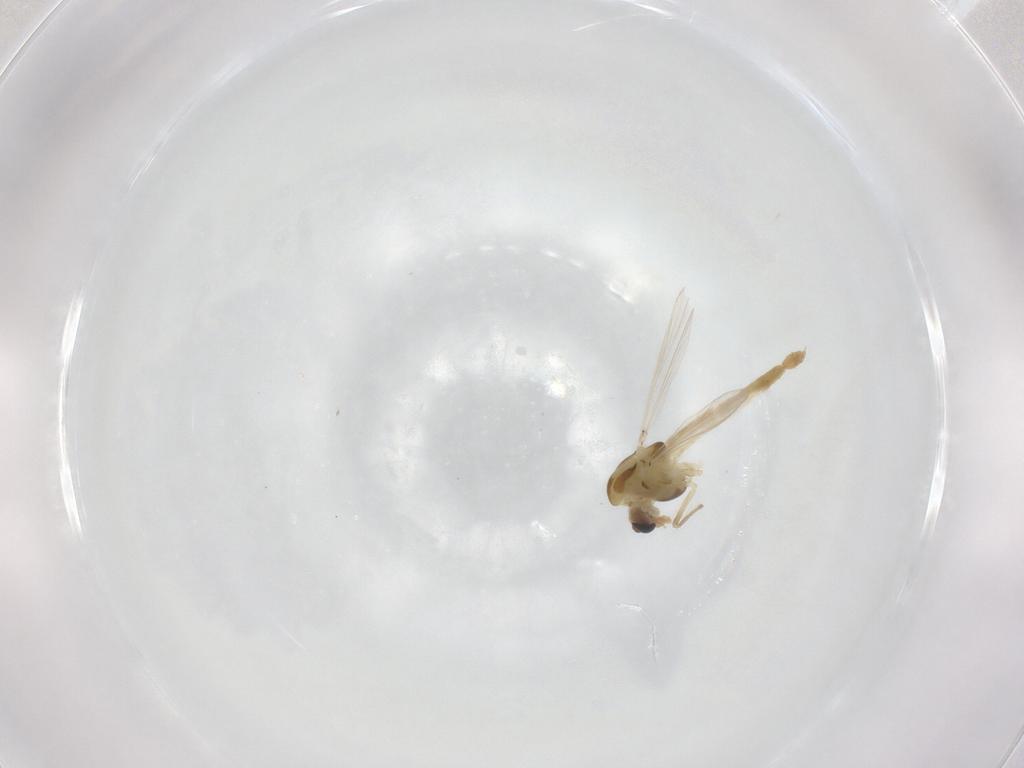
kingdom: Animalia
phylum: Arthropoda
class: Insecta
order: Diptera
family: Chironomidae
